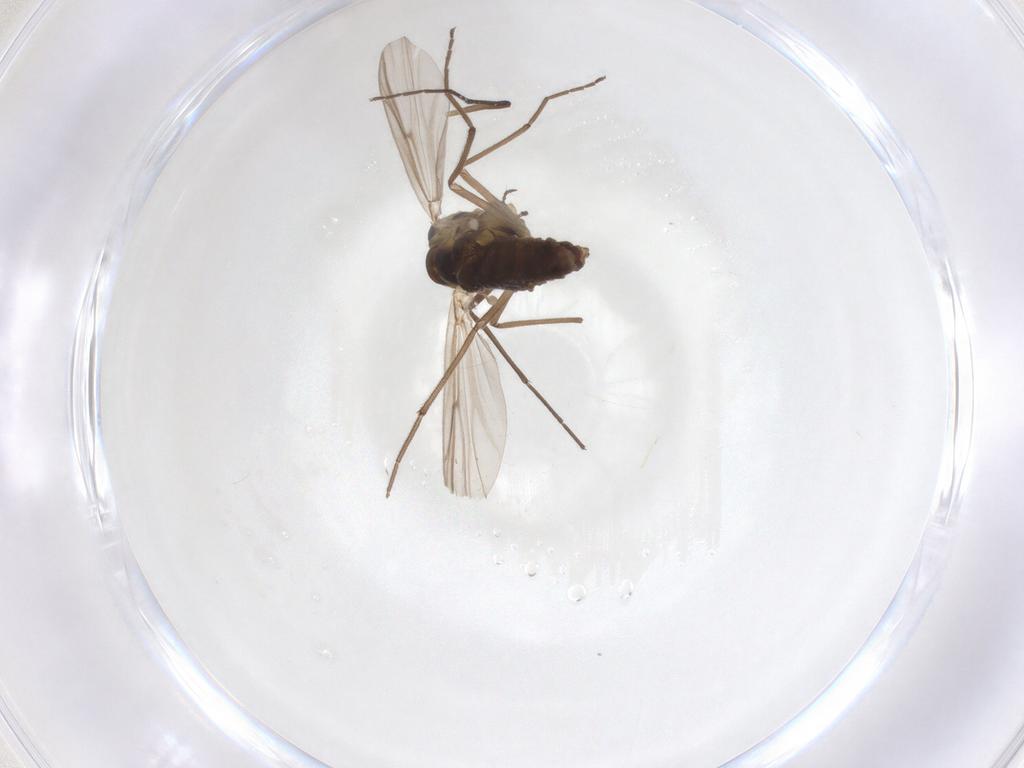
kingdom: Animalia
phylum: Arthropoda
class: Insecta
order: Diptera
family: Chironomidae
